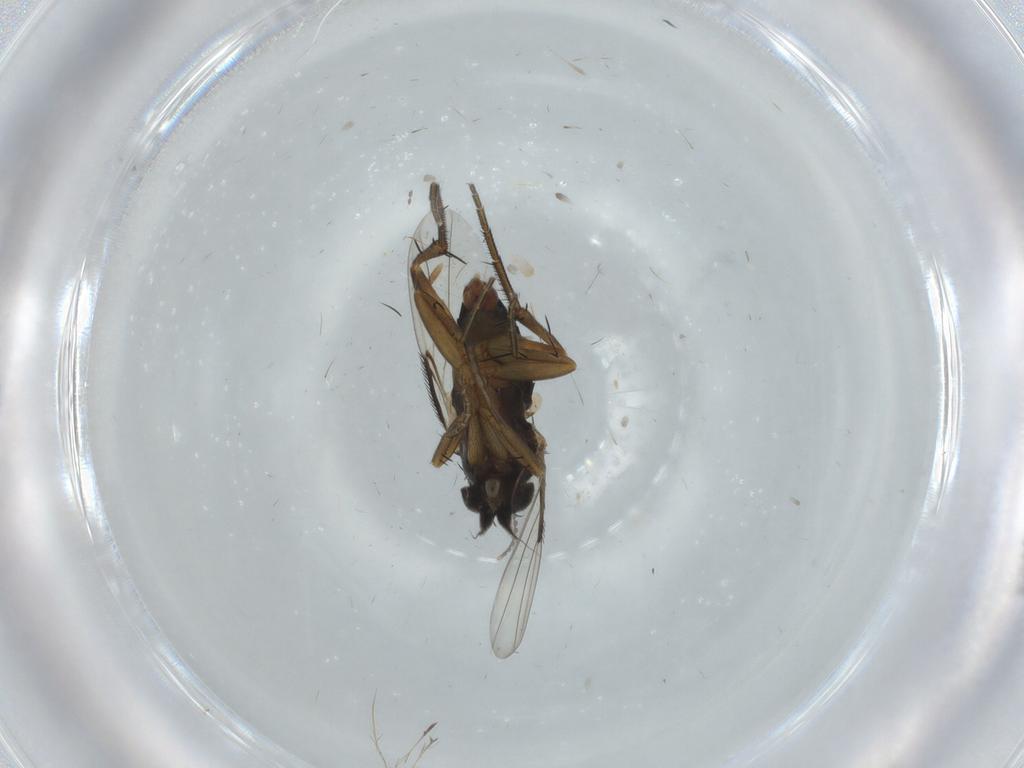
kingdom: Animalia
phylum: Arthropoda
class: Insecta
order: Diptera
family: Phoridae
